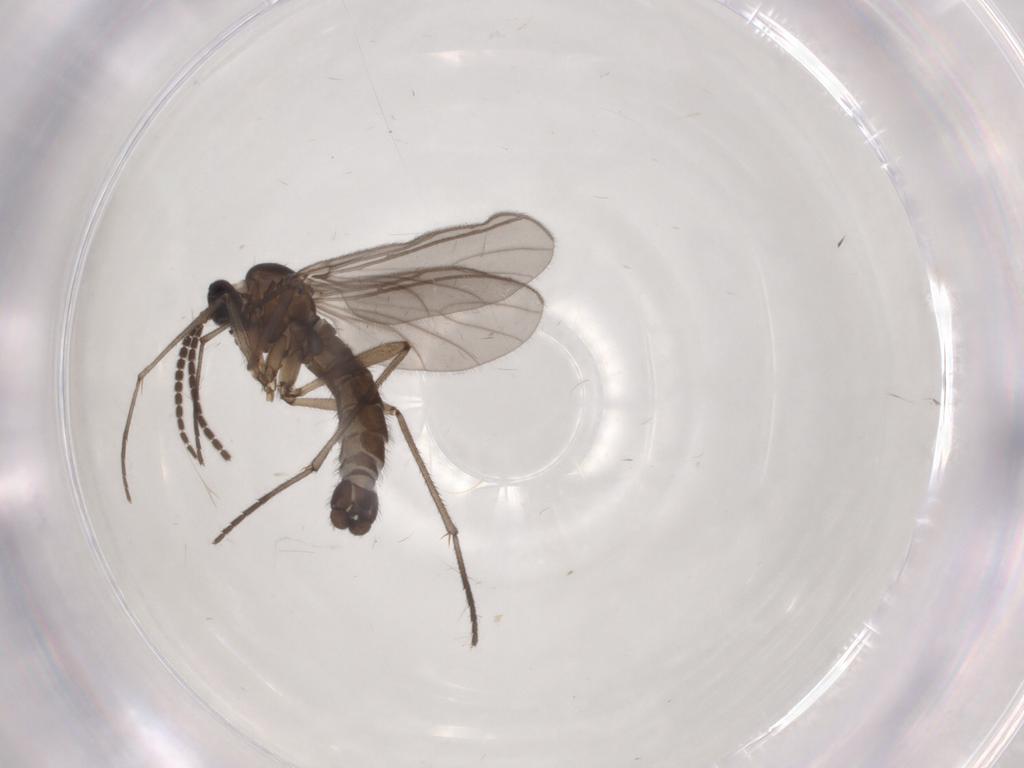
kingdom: Animalia
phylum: Arthropoda
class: Insecta
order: Diptera
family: Sciaridae
